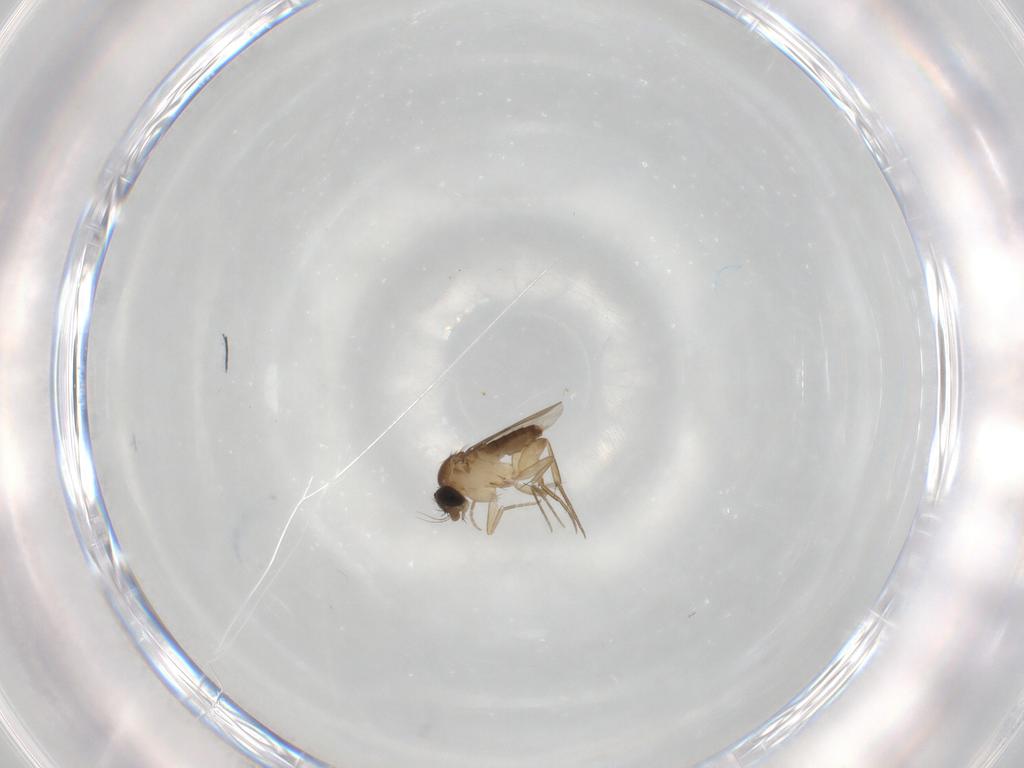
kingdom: Animalia
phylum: Arthropoda
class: Insecta
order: Diptera
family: Phoridae
